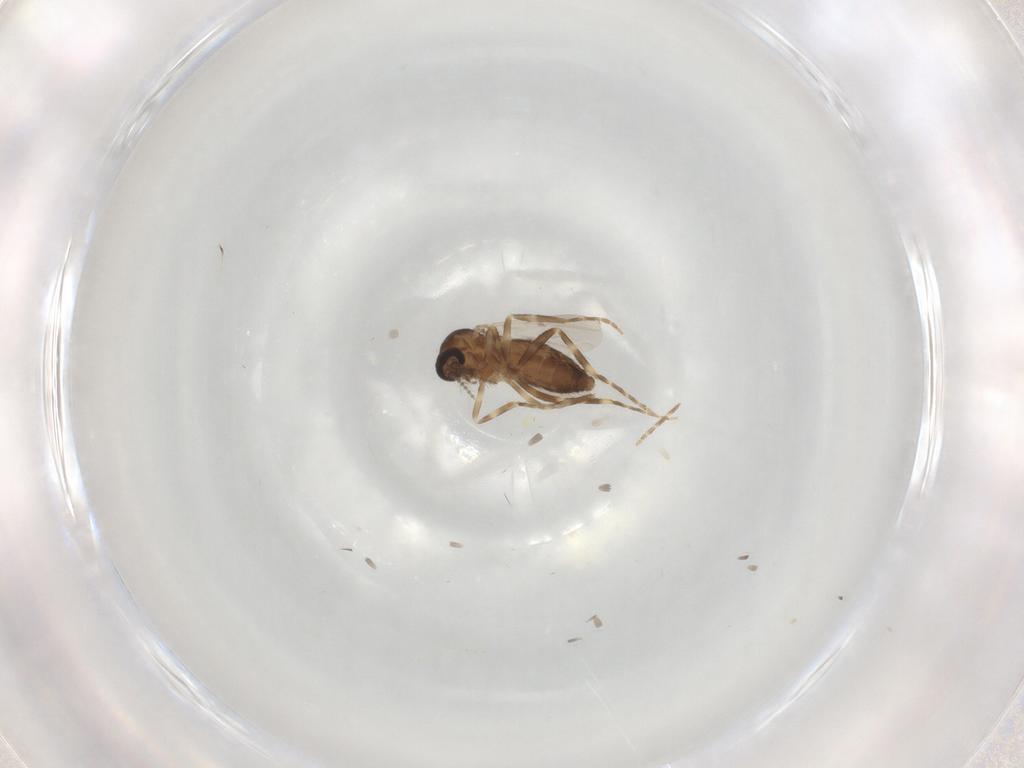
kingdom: Animalia
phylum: Arthropoda
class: Insecta
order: Diptera
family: Ceratopogonidae
